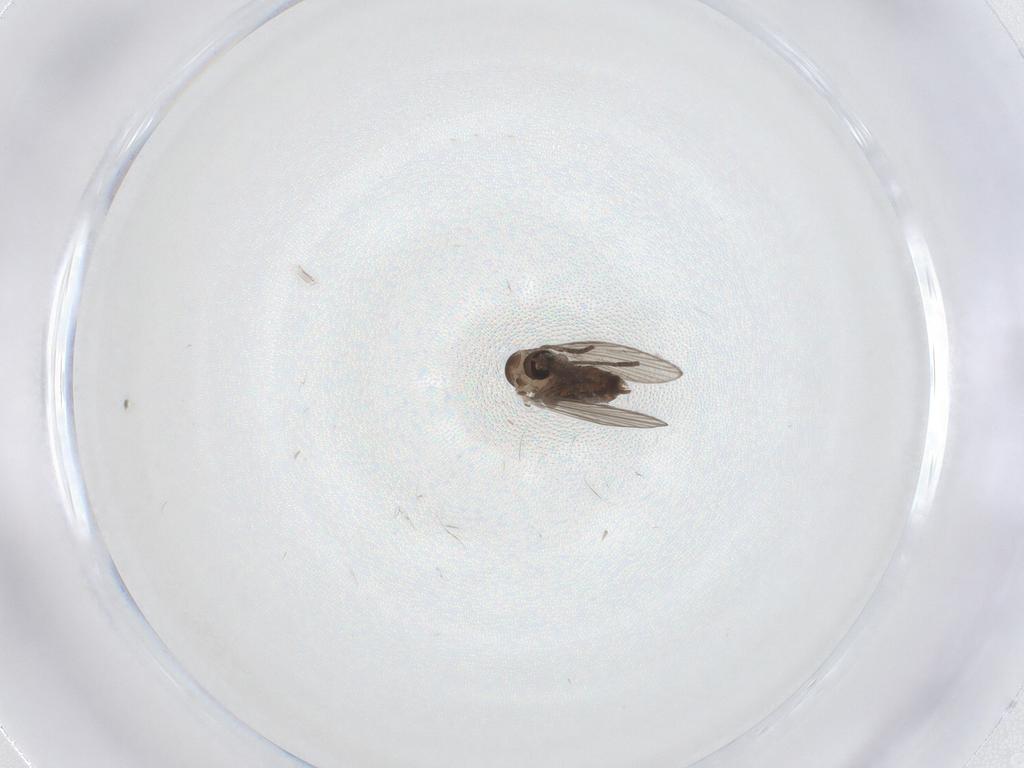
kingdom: Animalia
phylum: Arthropoda
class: Insecta
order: Diptera
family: Psychodidae
